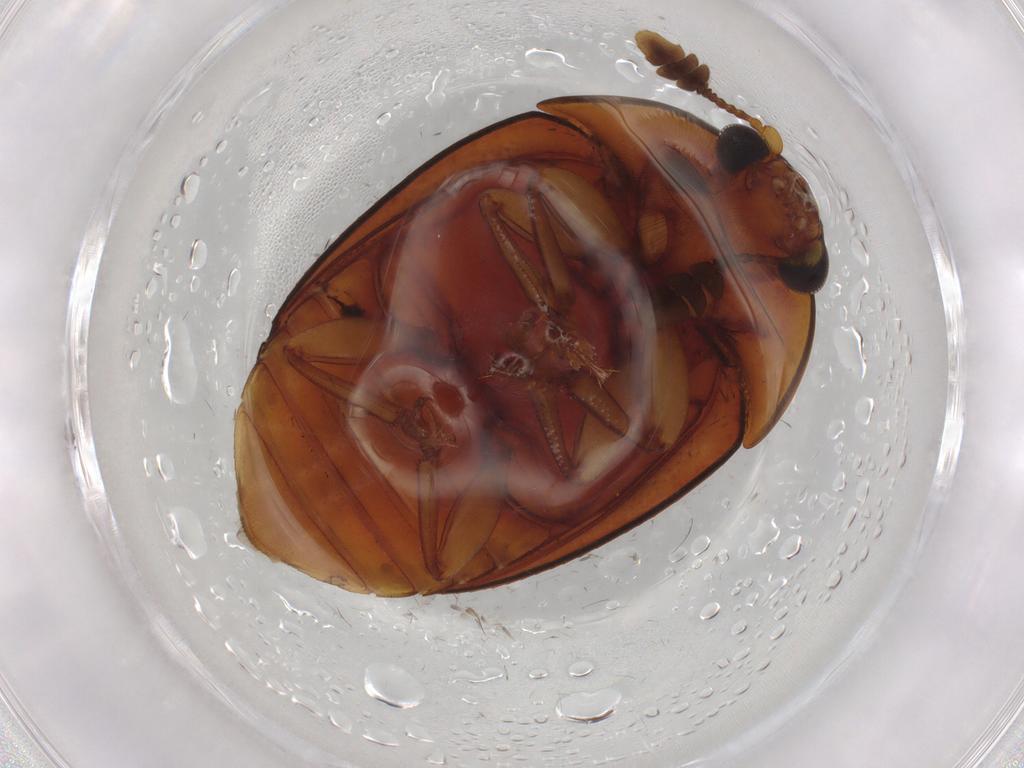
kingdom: Animalia
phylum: Arthropoda
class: Insecta
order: Coleoptera
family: Nitidulidae
